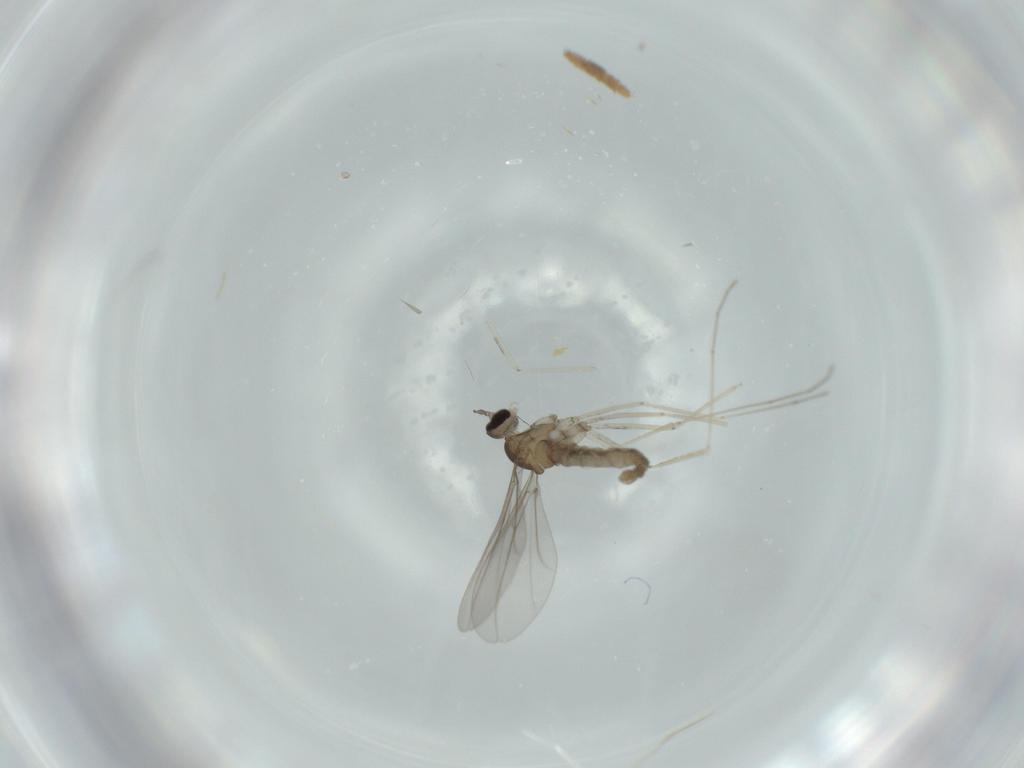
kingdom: Animalia
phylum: Arthropoda
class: Insecta
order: Diptera
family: Cecidomyiidae
